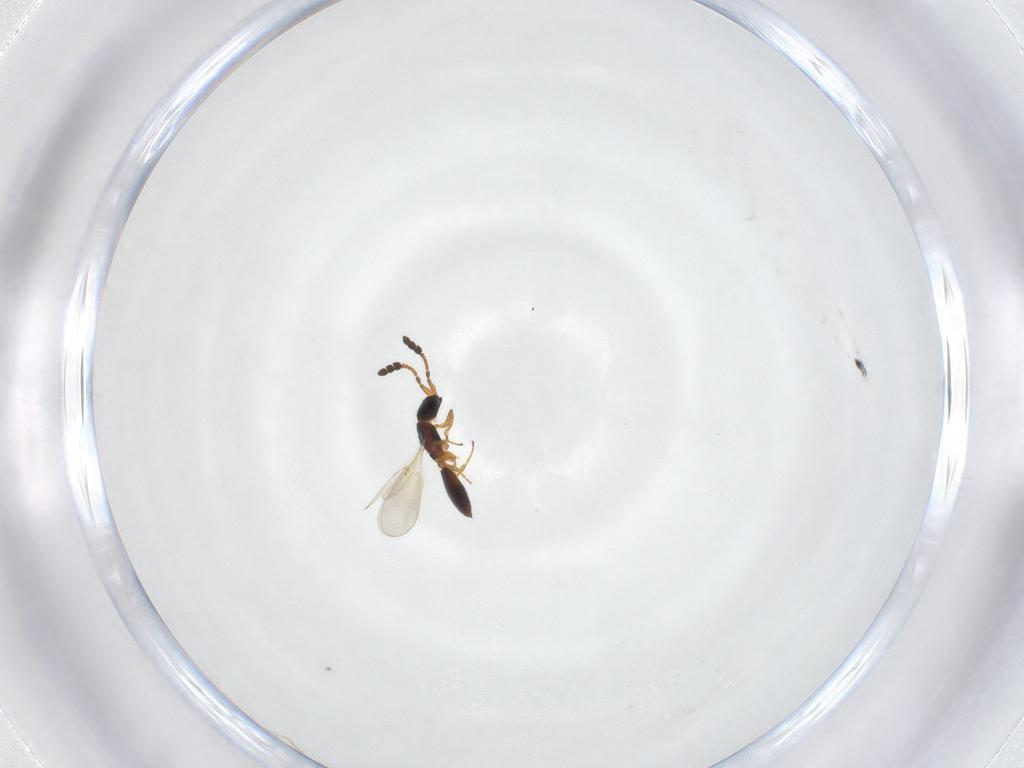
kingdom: Animalia
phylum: Arthropoda
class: Insecta
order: Hymenoptera
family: Diapriidae
